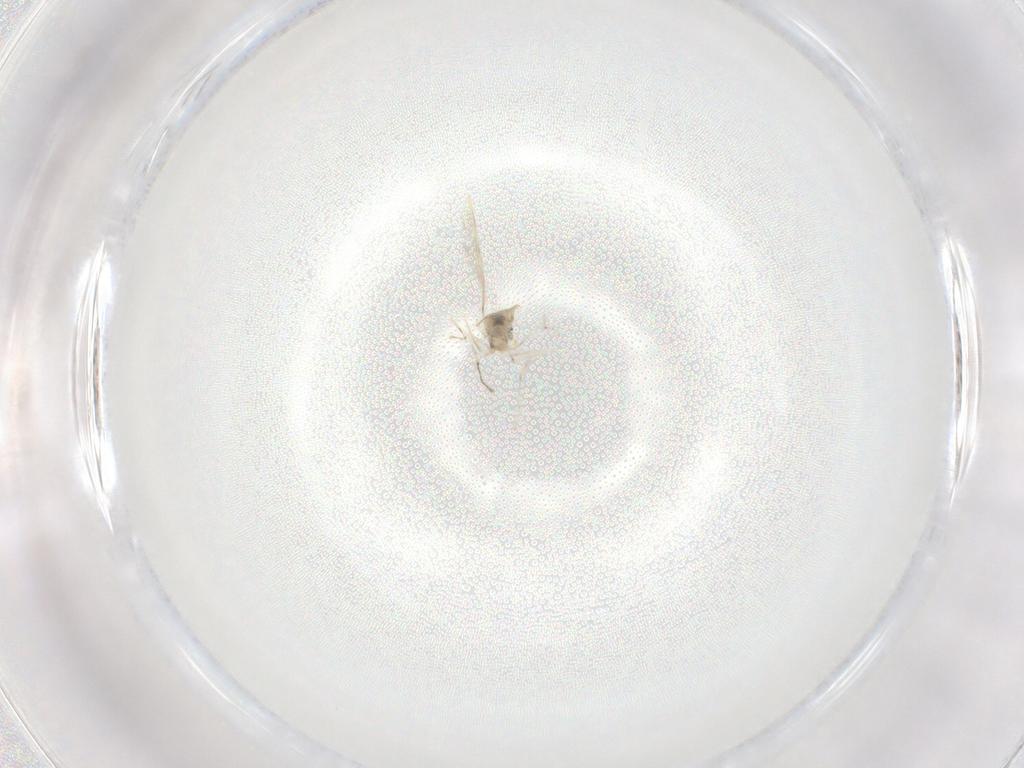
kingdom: Animalia
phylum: Arthropoda
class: Insecta
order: Diptera
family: Cecidomyiidae
